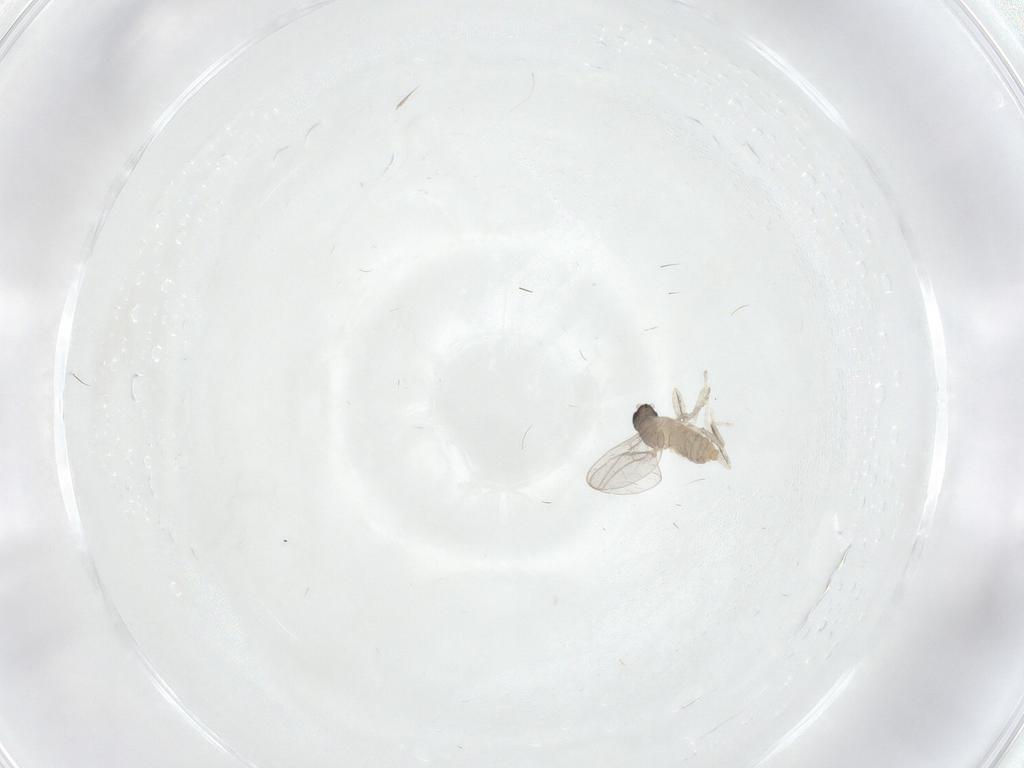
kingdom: Animalia
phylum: Arthropoda
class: Insecta
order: Diptera
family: Cecidomyiidae
